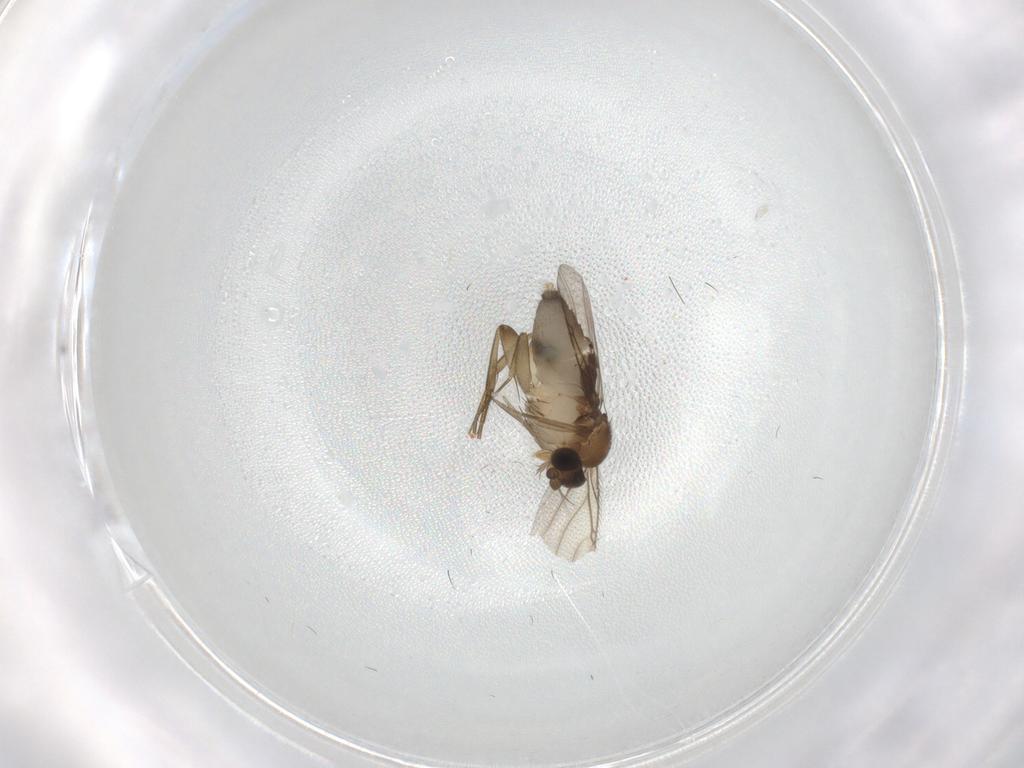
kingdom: Animalia
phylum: Arthropoda
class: Insecta
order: Diptera
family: Phoridae
